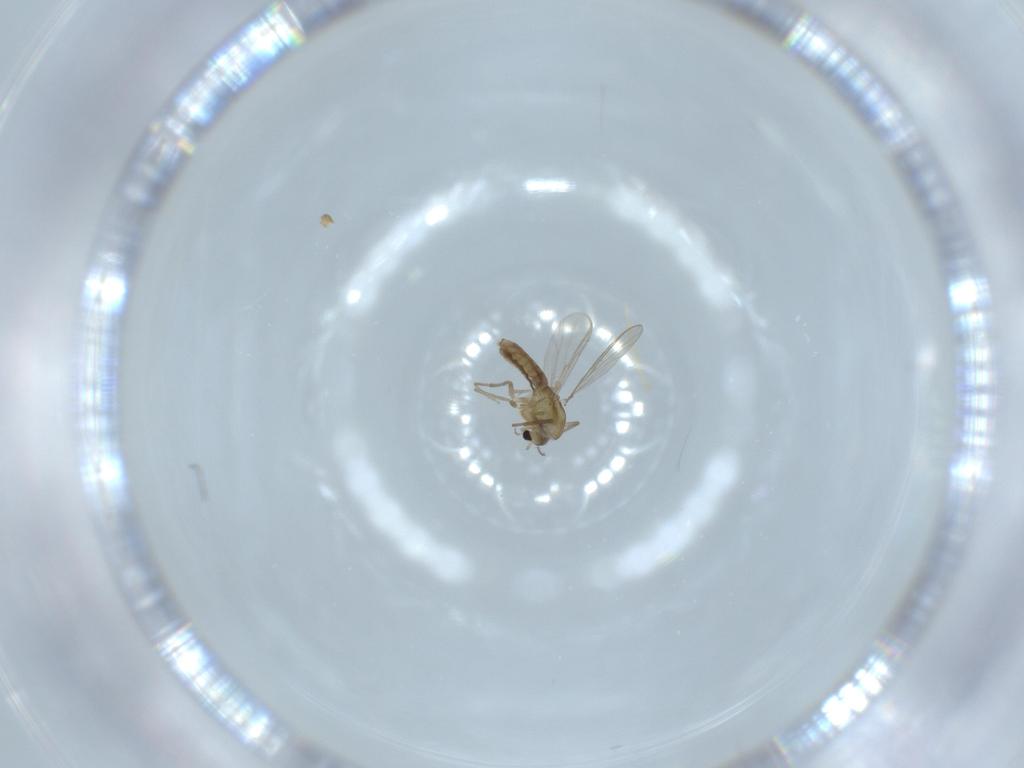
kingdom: Animalia
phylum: Arthropoda
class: Insecta
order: Diptera
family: Chironomidae
